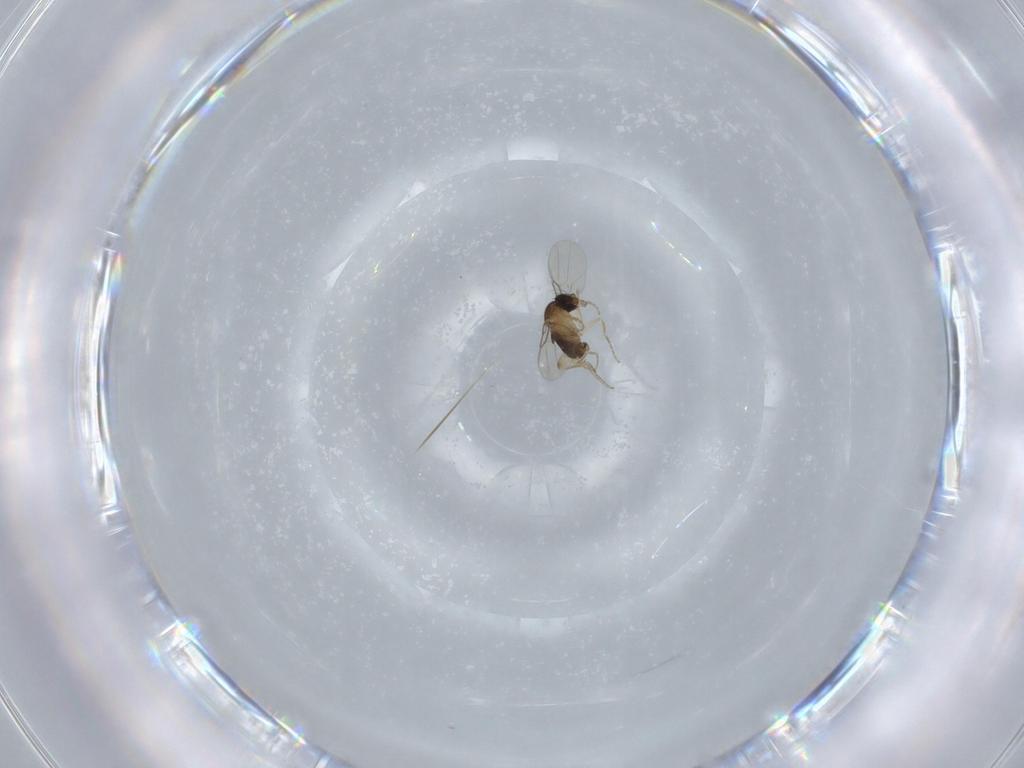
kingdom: Animalia
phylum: Arthropoda
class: Insecta
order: Diptera
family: Phoridae
